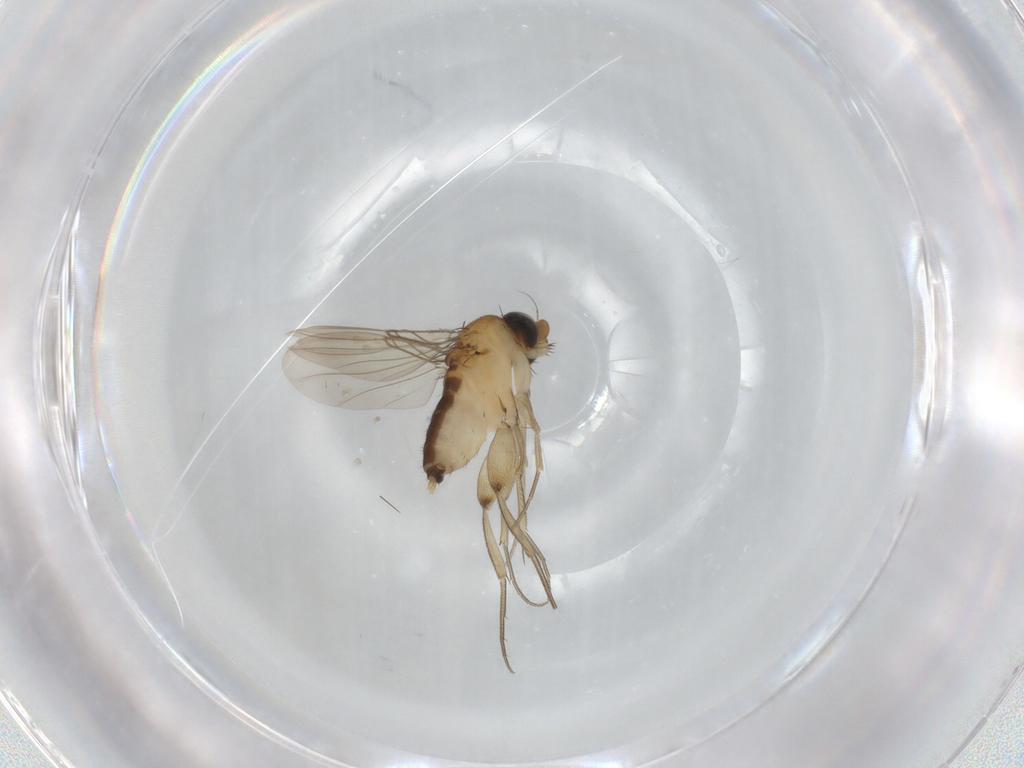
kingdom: Animalia
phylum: Arthropoda
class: Insecta
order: Diptera
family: Phoridae
